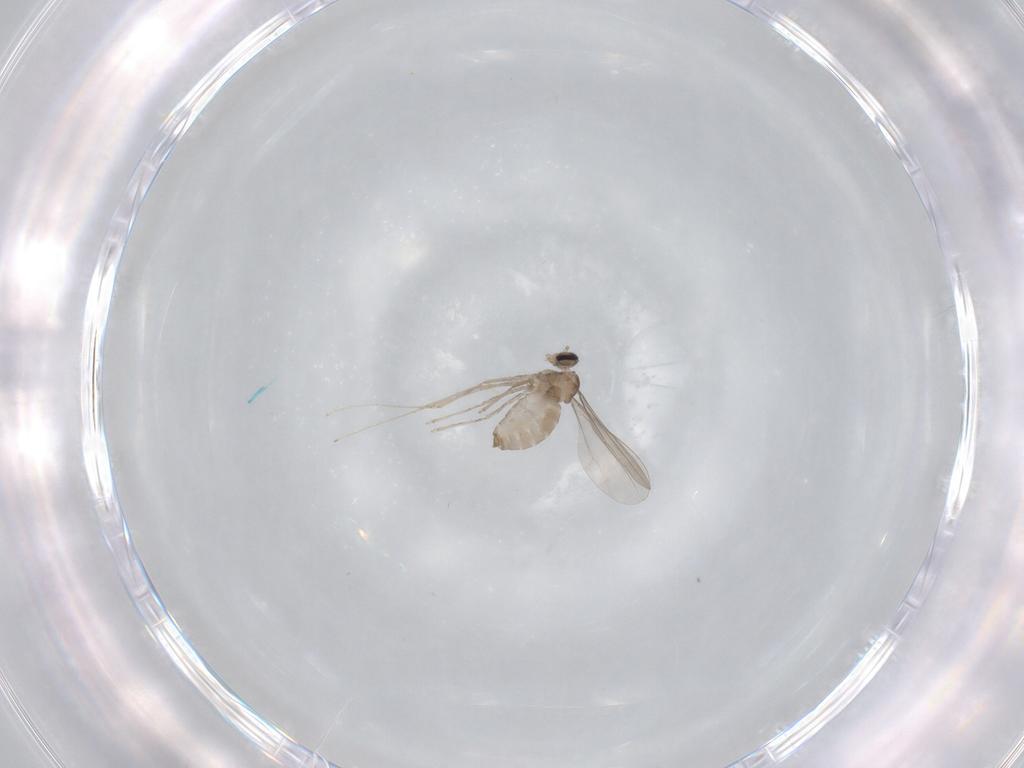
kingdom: Animalia
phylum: Arthropoda
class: Insecta
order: Diptera
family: Cecidomyiidae
